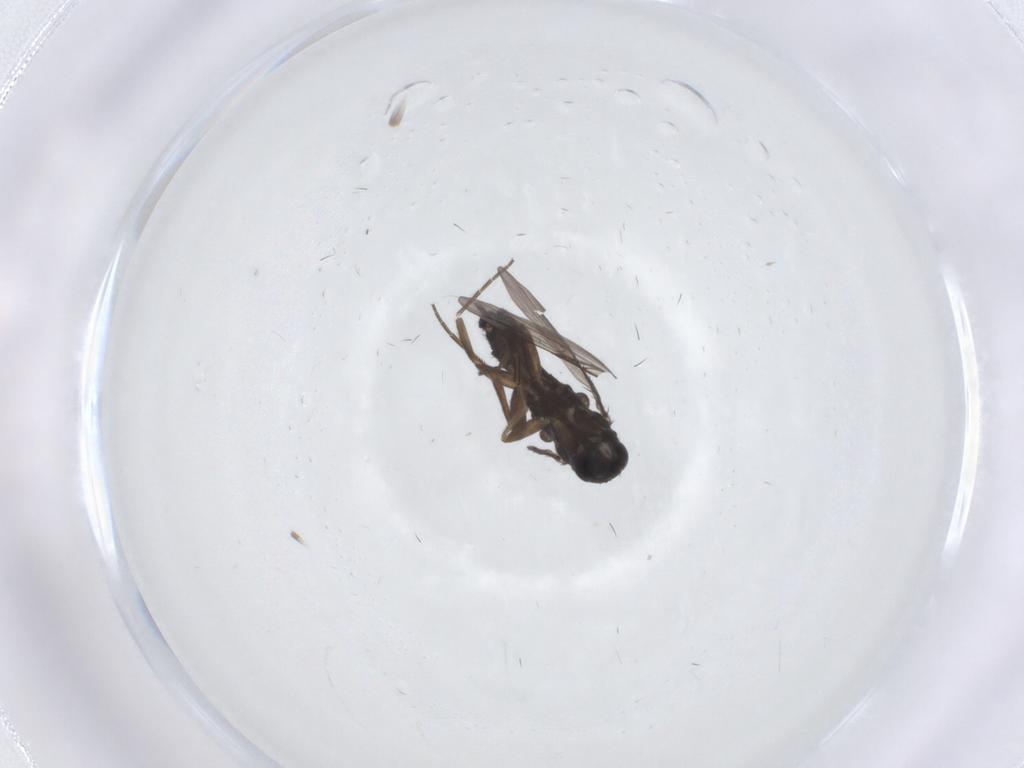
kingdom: Animalia
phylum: Arthropoda
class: Insecta
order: Diptera
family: Phoridae
